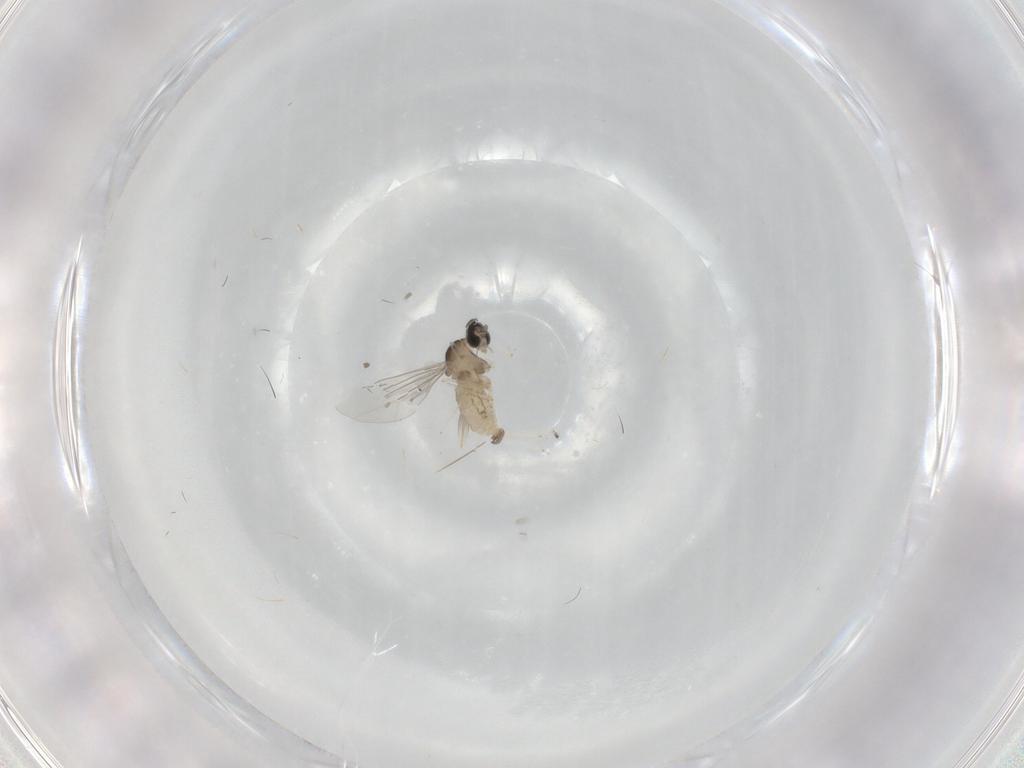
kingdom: Animalia
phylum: Arthropoda
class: Insecta
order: Diptera
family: Cecidomyiidae
